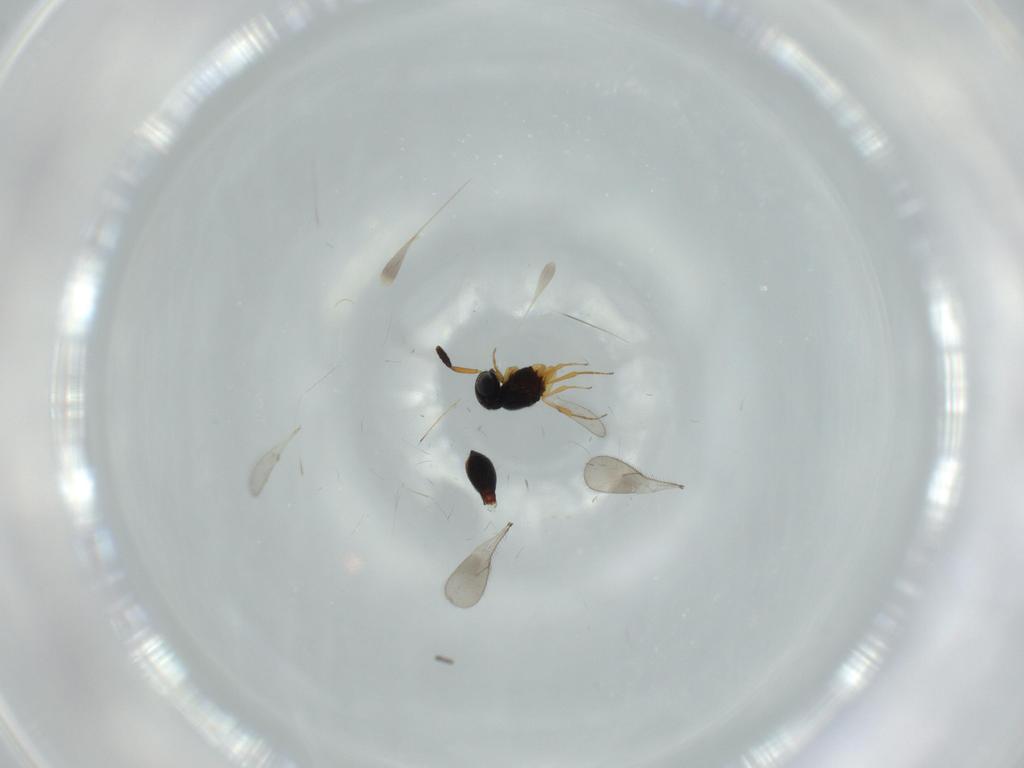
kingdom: Animalia
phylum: Arthropoda
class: Insecta
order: Hymenoptera
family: Scelionidae
